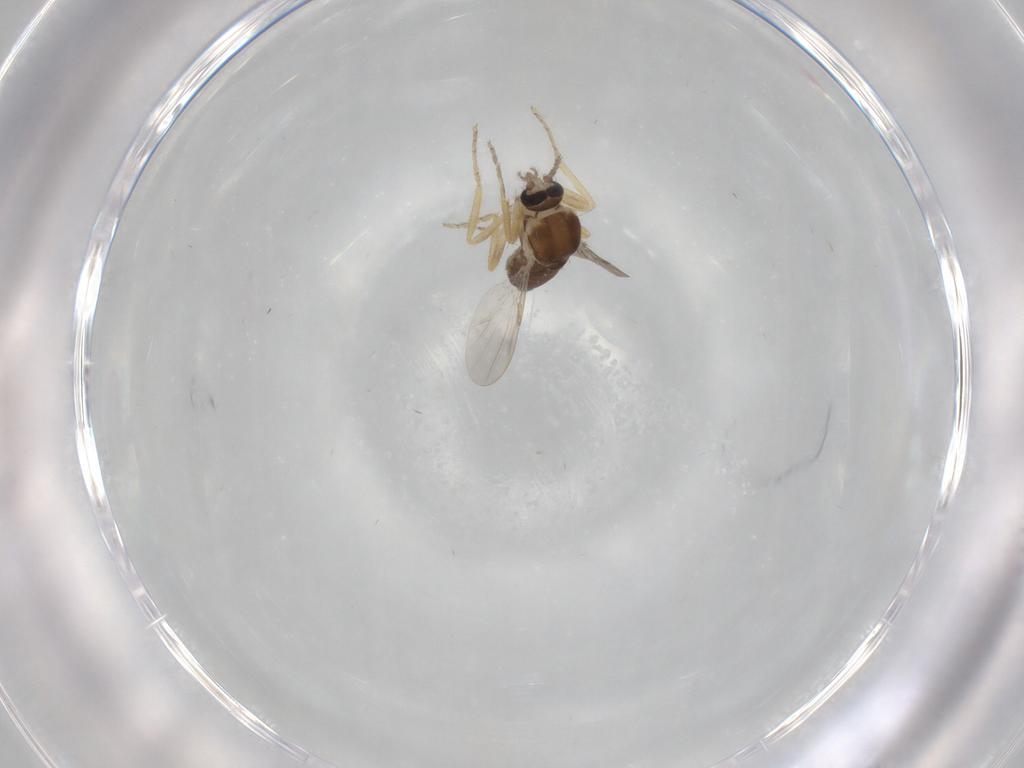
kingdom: Animalia
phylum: Arthropoda
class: Insecta
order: Diptera
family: Ceratopogonidae
